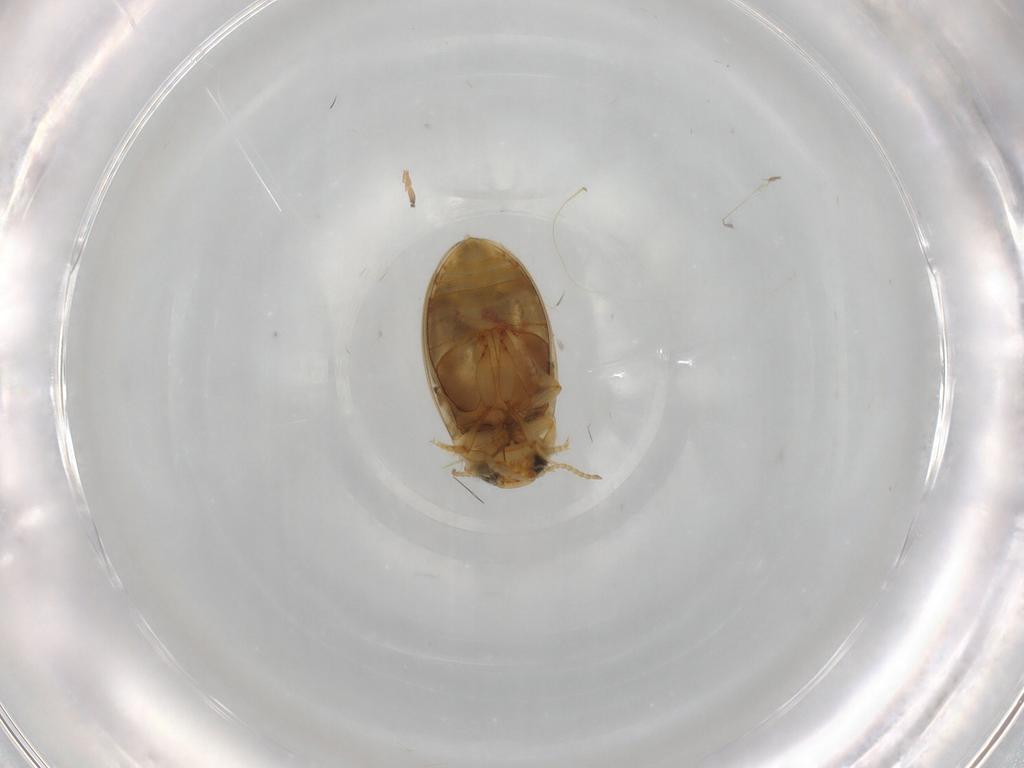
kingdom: Animalia
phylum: Arthropoda
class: Insecta
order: Coleoptera
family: Dytiscidae
